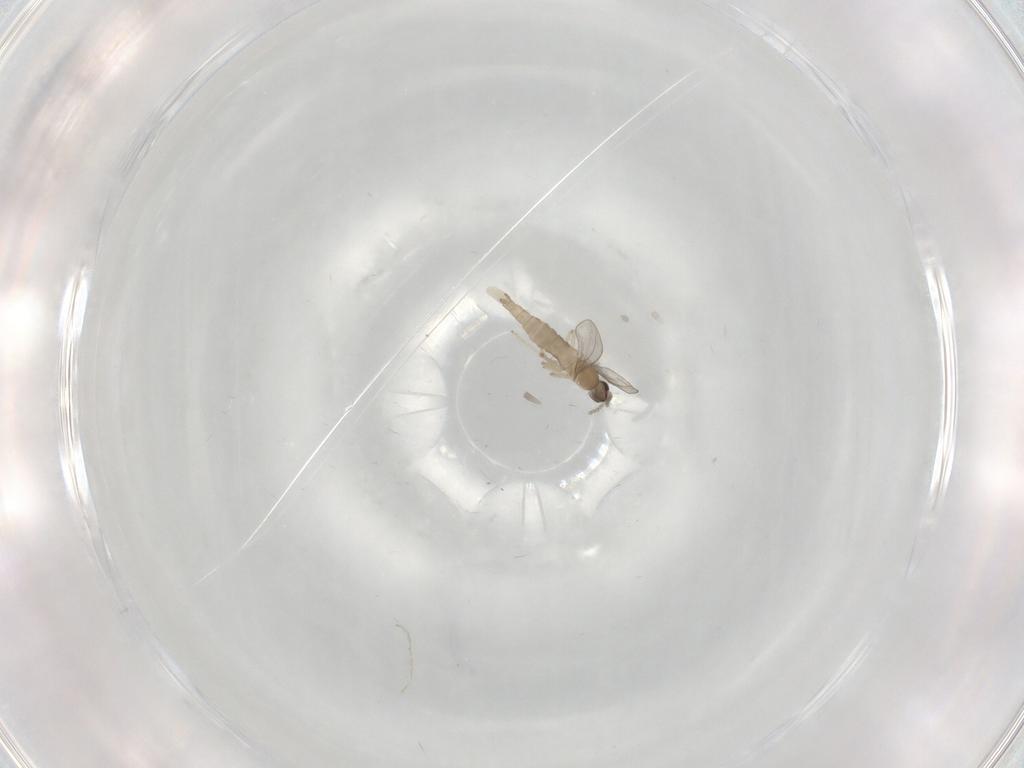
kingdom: Animalia
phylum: Arthropoda
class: Insecta
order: Diptera
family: Cecidomyiidae
